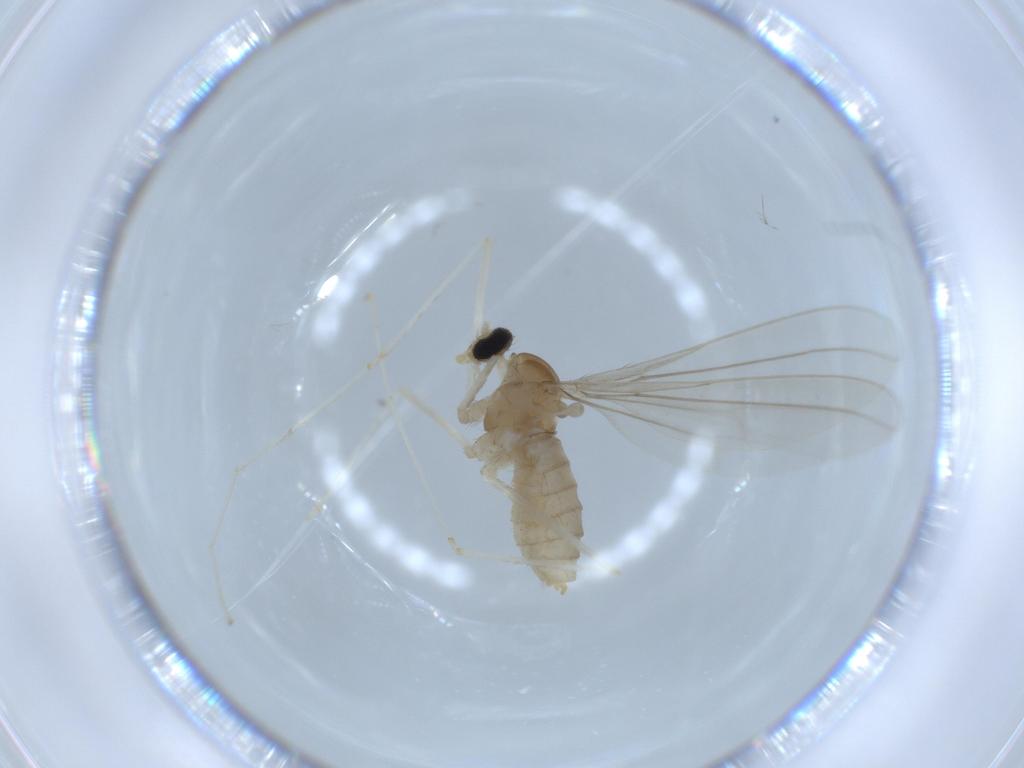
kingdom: Animalia
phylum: Arthropoda
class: Insecta
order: Diptera
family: Cecidomyiidae
